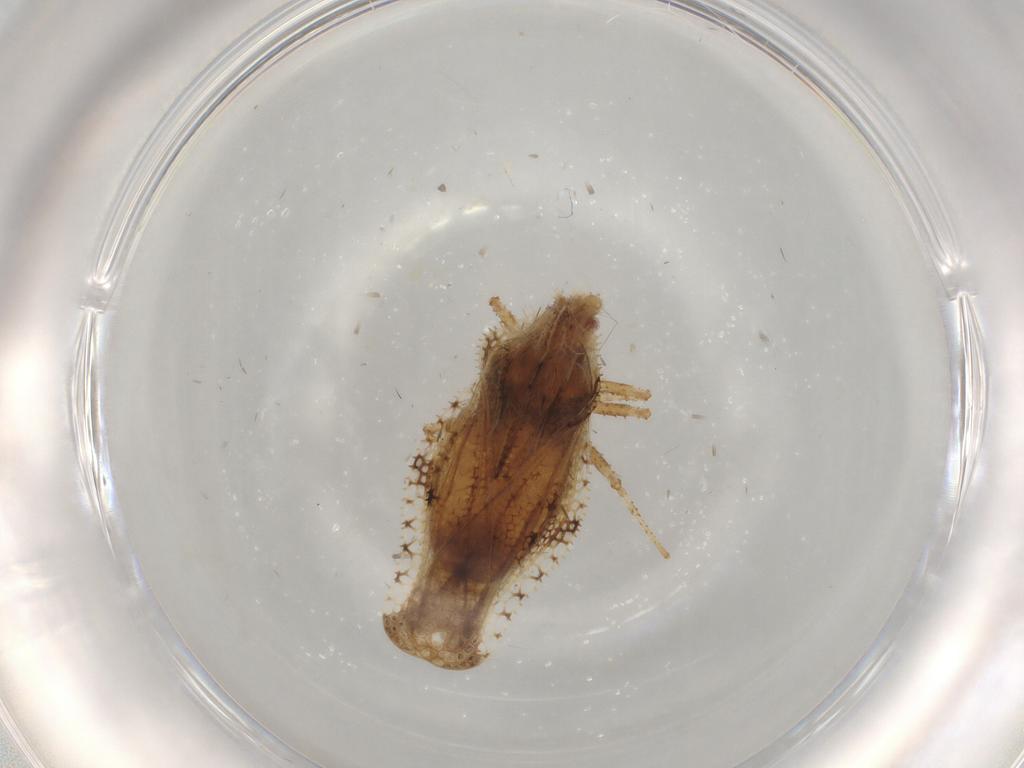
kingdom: Animalia
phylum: Arthropoda
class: Insecta
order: Hemiptera
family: Tingidae
